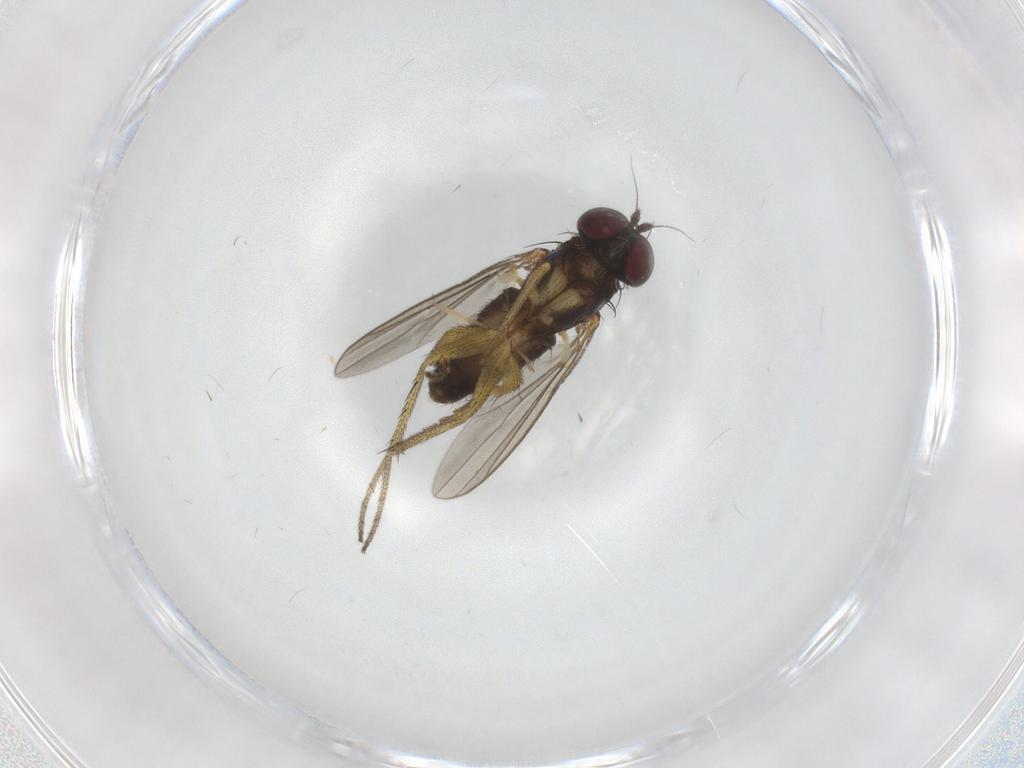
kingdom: Animalia
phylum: Arthropoda
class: Insecta
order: Diptera
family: Dolichopodidae
